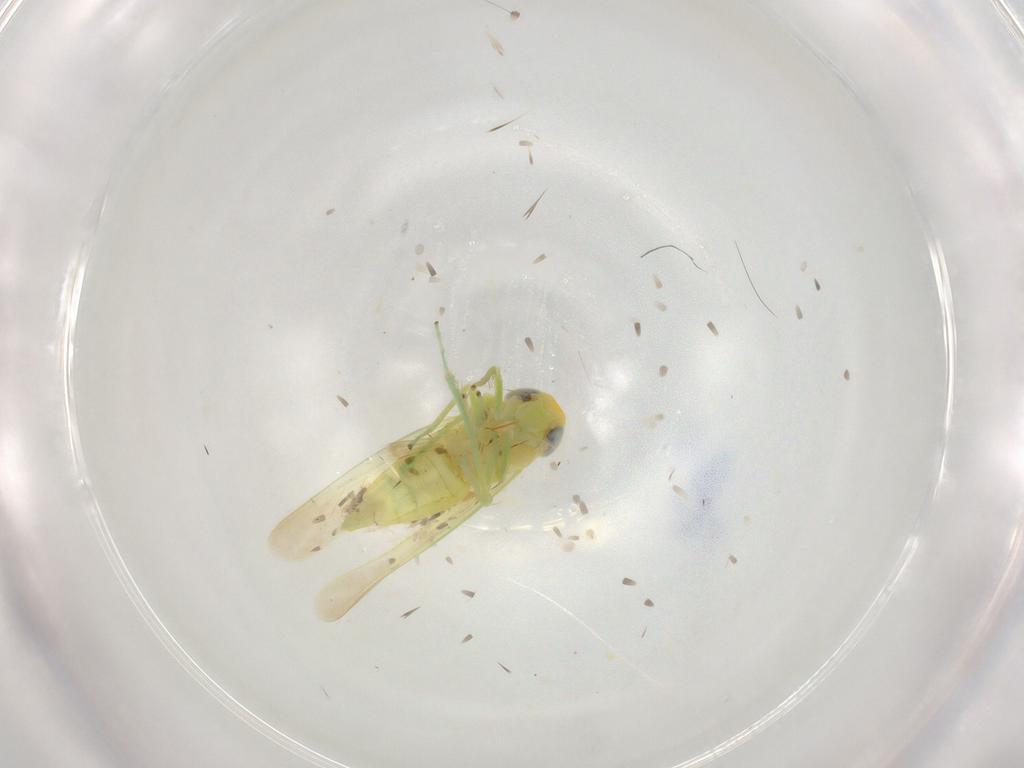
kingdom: Animalia
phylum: Arthropoda
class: Insecta
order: Hemiptera
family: Cicadellidae
